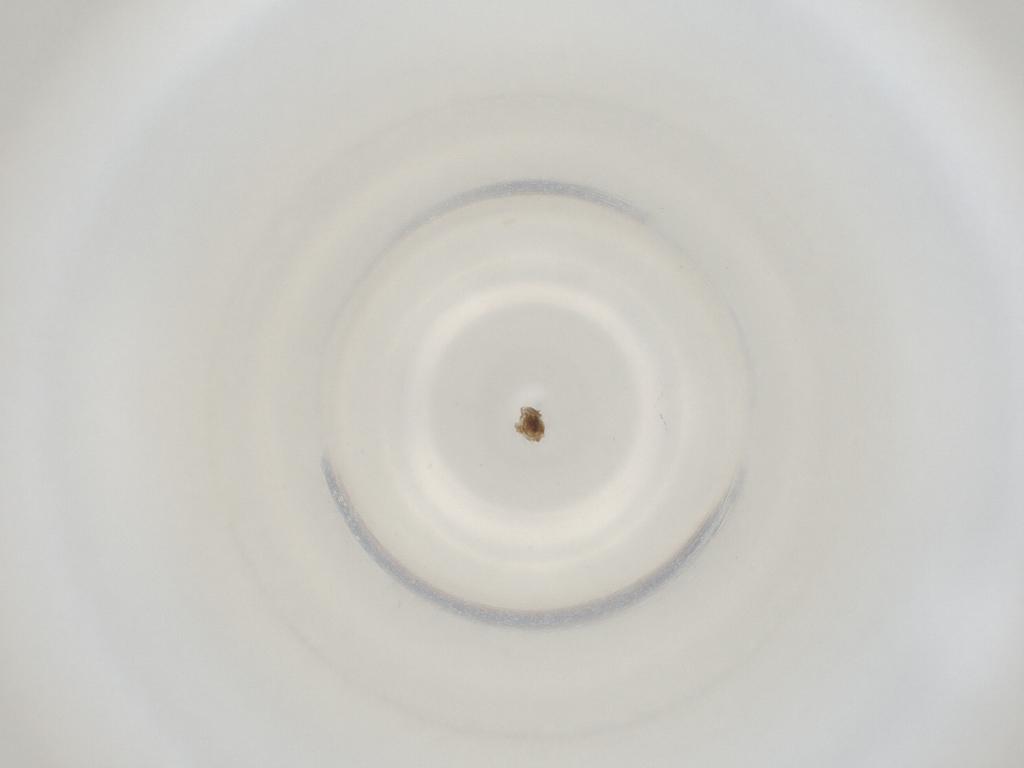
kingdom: Animalia
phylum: Arthropoda
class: Insecta
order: Diptera
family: Cecidomyiidae
